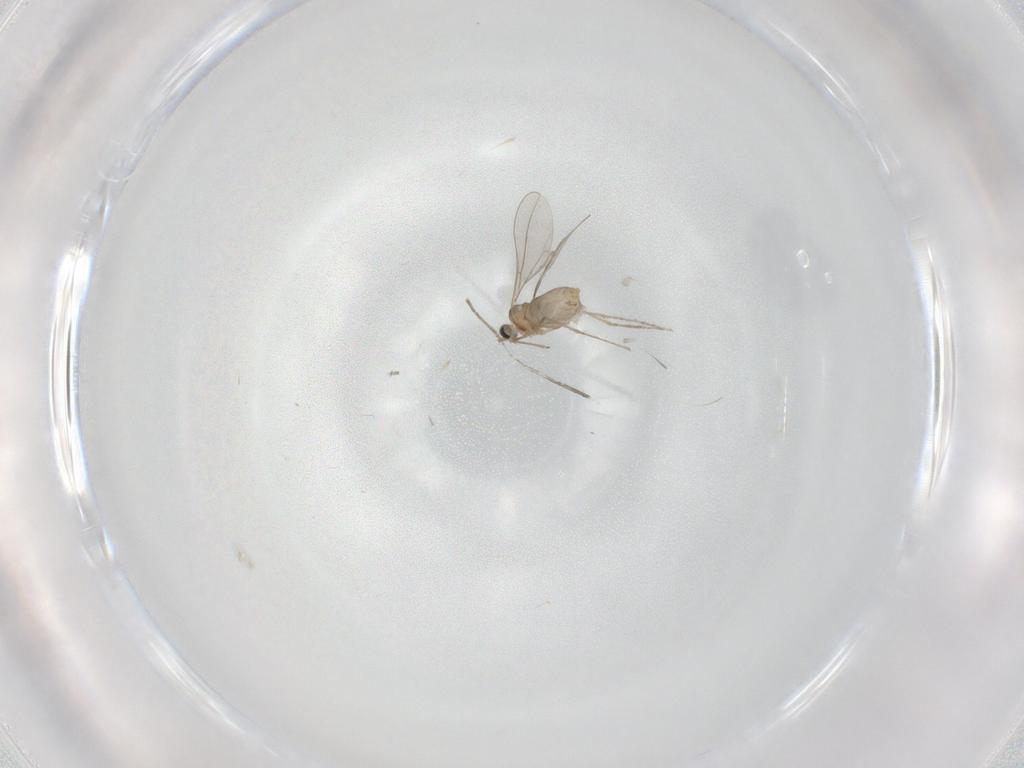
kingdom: Animalia
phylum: Arthropoda
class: Insecta
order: Diptera
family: Cecidomyiidae
